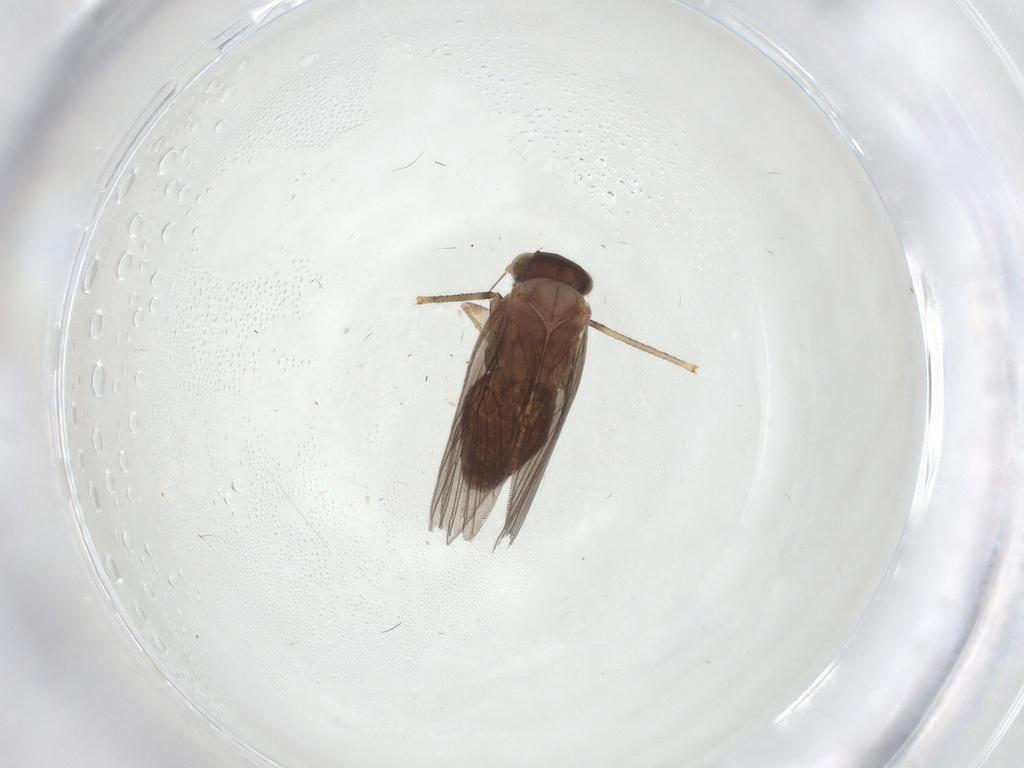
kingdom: Animalia
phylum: Arthropoda
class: Insecta
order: Psocodea
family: Lepidopsocidae
